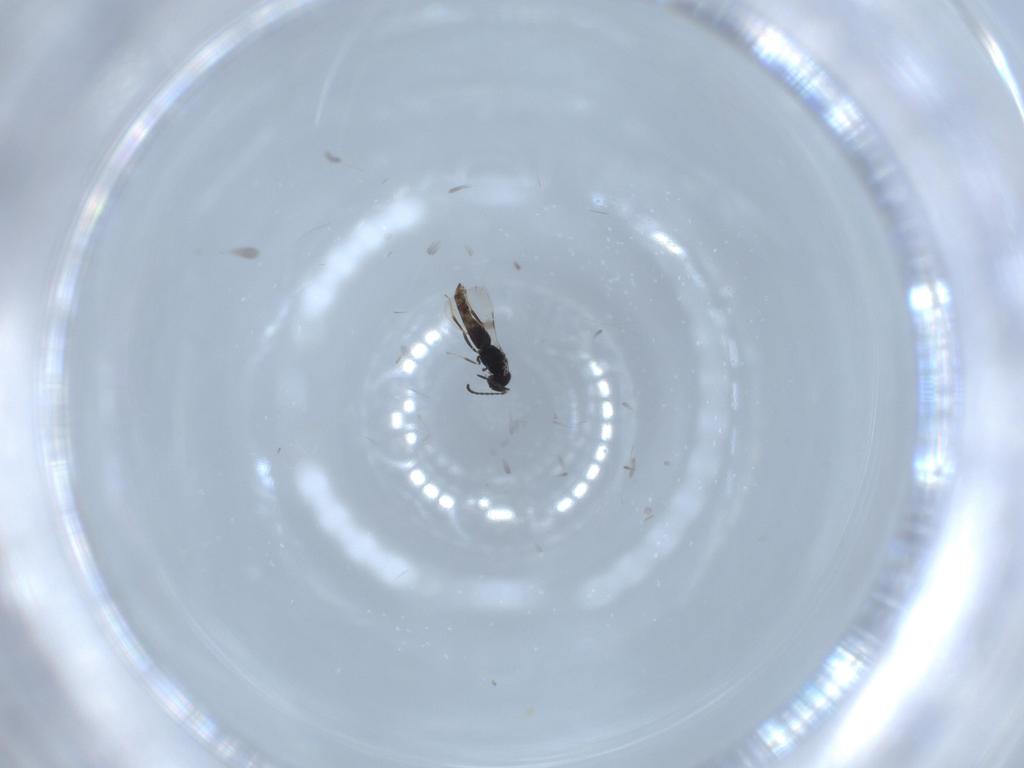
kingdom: Animalia
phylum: Arthropoda
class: Insecta
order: Hymenoptera
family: Ceraphronidae
